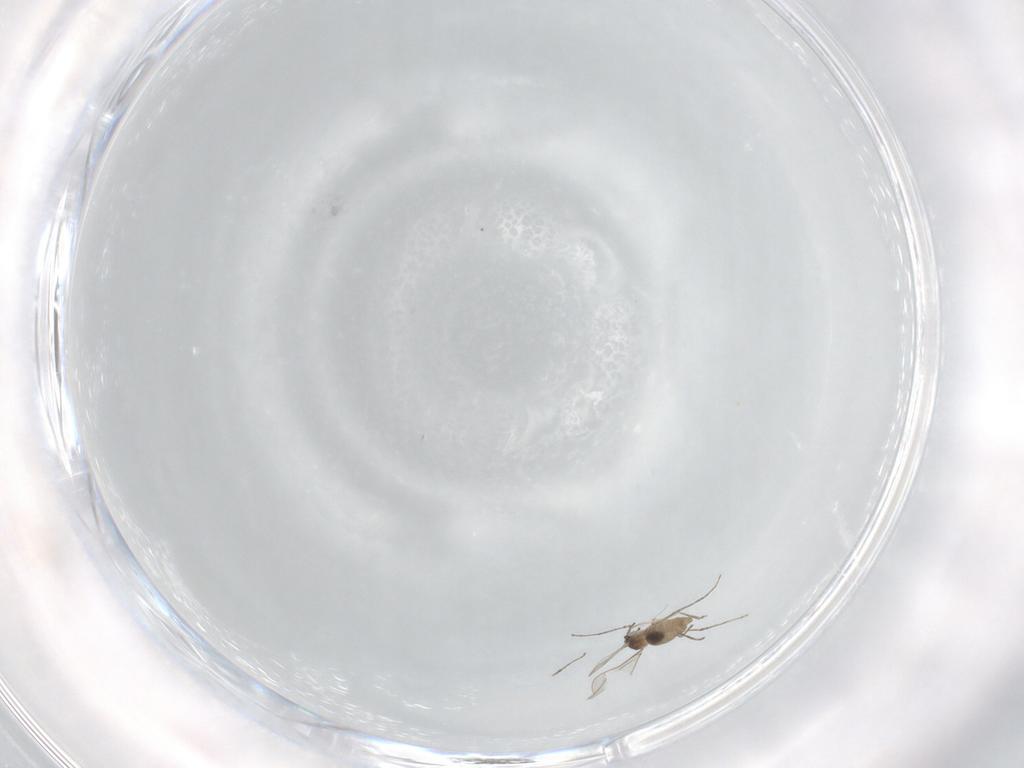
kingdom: Animalia
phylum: Arthropoda
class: Insecta
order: Diptera
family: Cecidomyiidae
